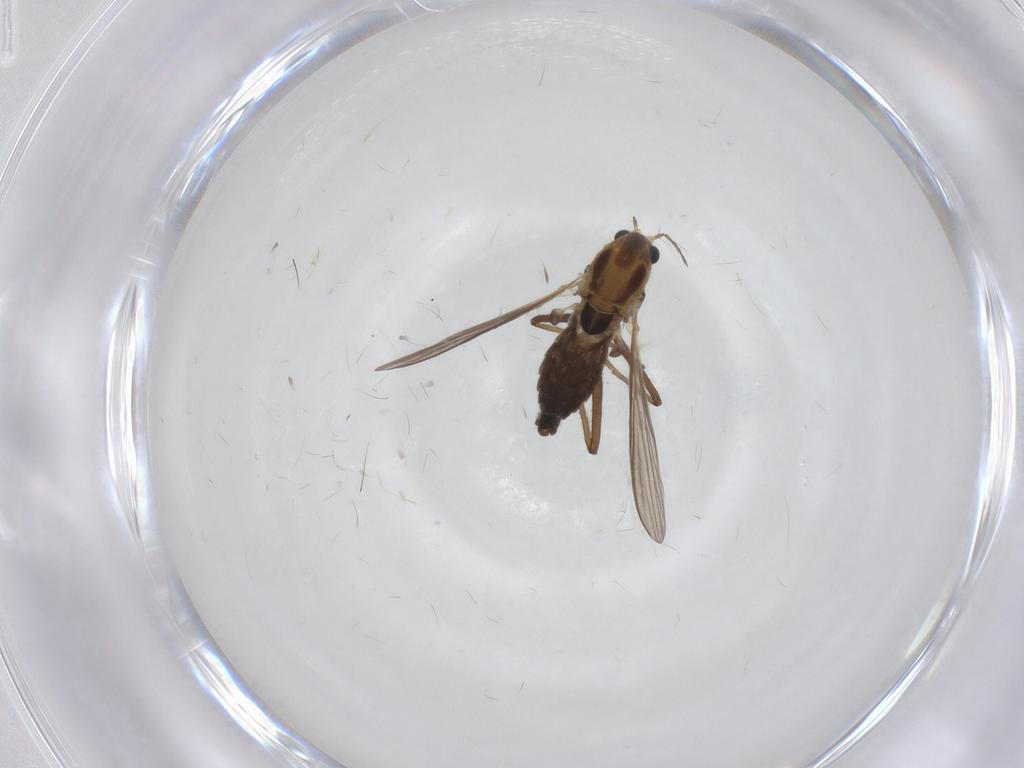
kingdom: Animalia
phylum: Arthropoda
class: Insecta
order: Diptera
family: Chironomidae
